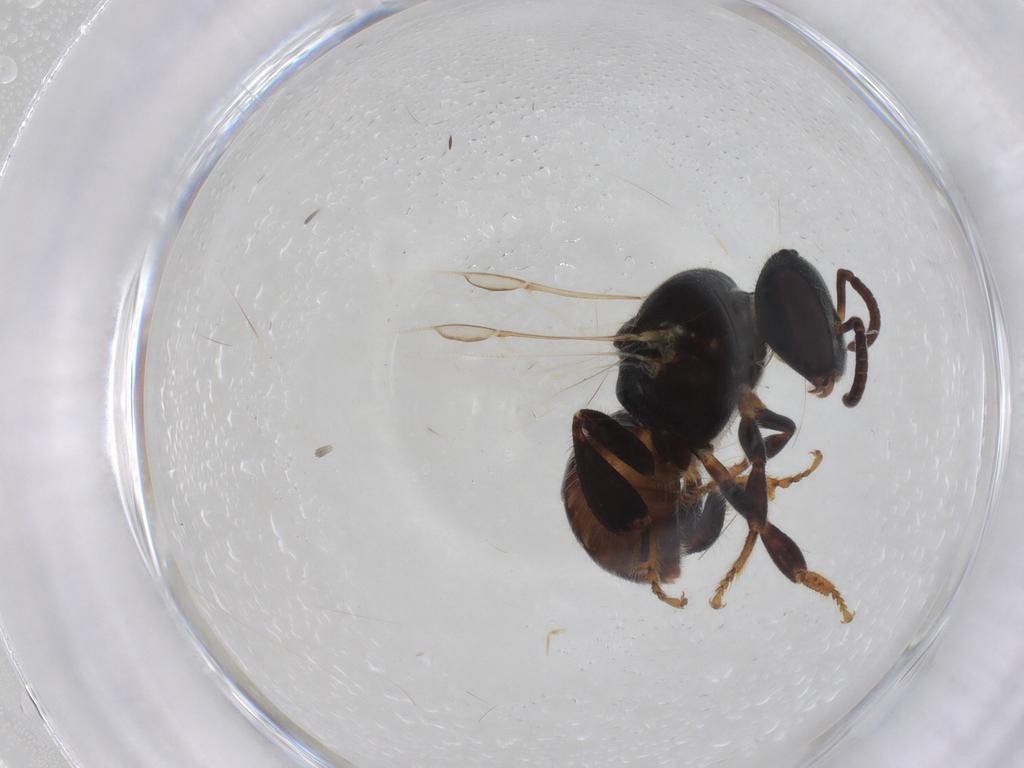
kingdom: Animalia
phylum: Arthropoda
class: Insecta
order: Hymenoptera
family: Apidae
